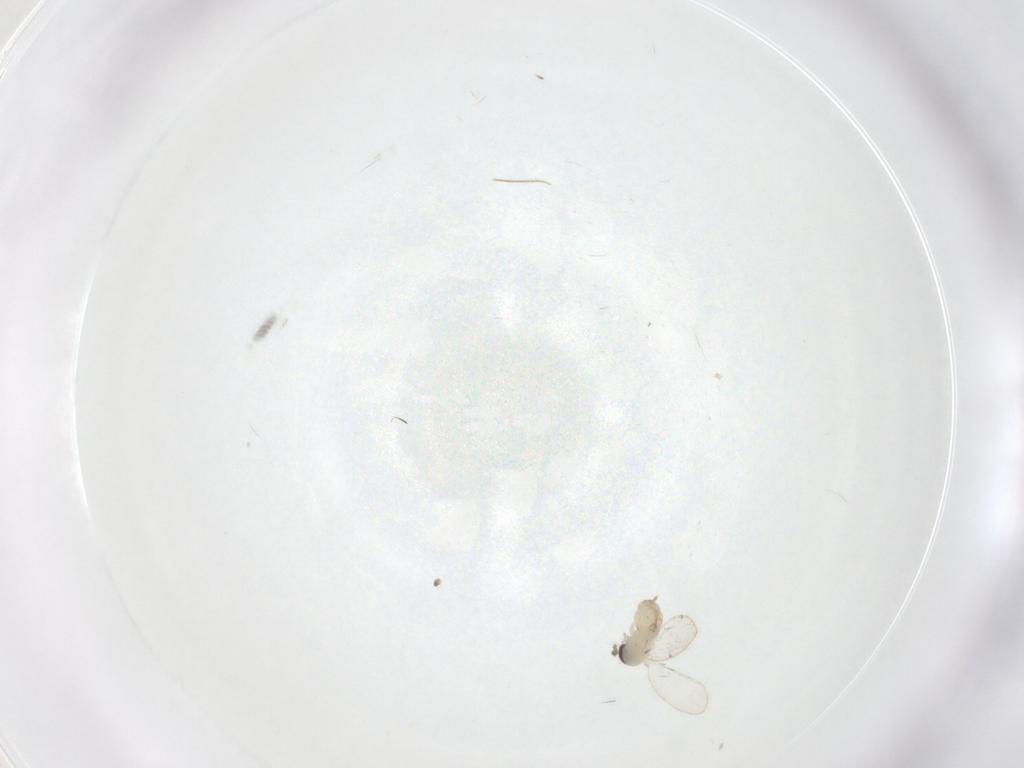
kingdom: Animalia
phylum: Arthropoda
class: Insecta
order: Diptera
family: Cecidomyiidae
